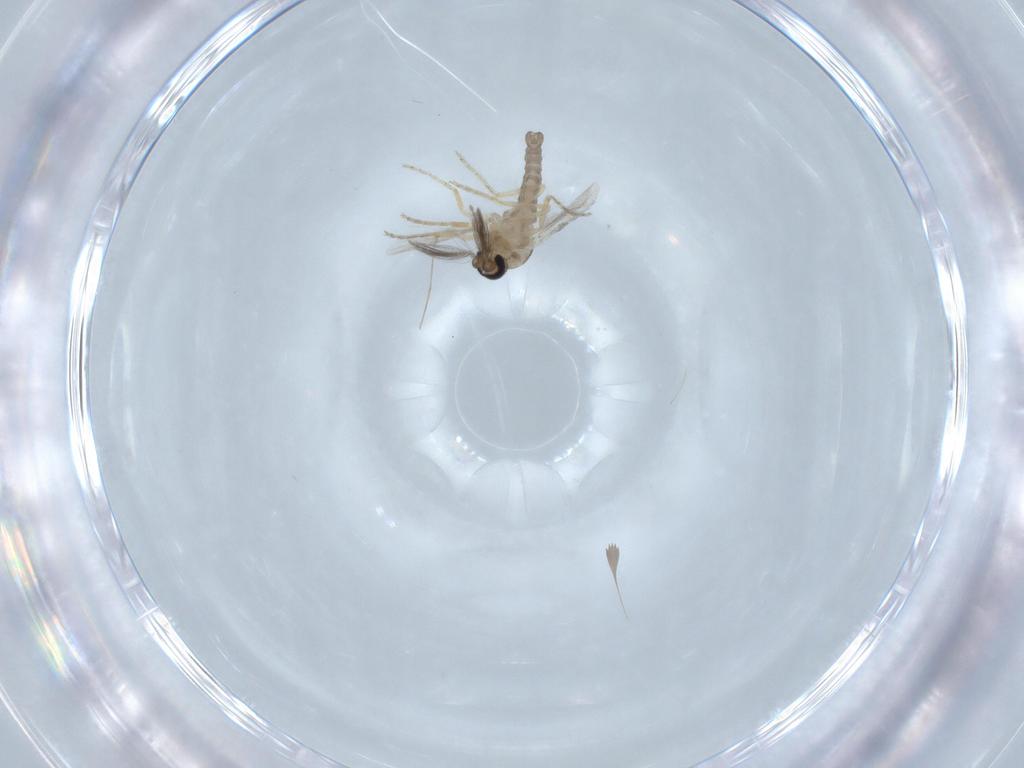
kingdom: Animalia
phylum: Arthropoda
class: Insecta
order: Diptera
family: Ceratopogonidae
